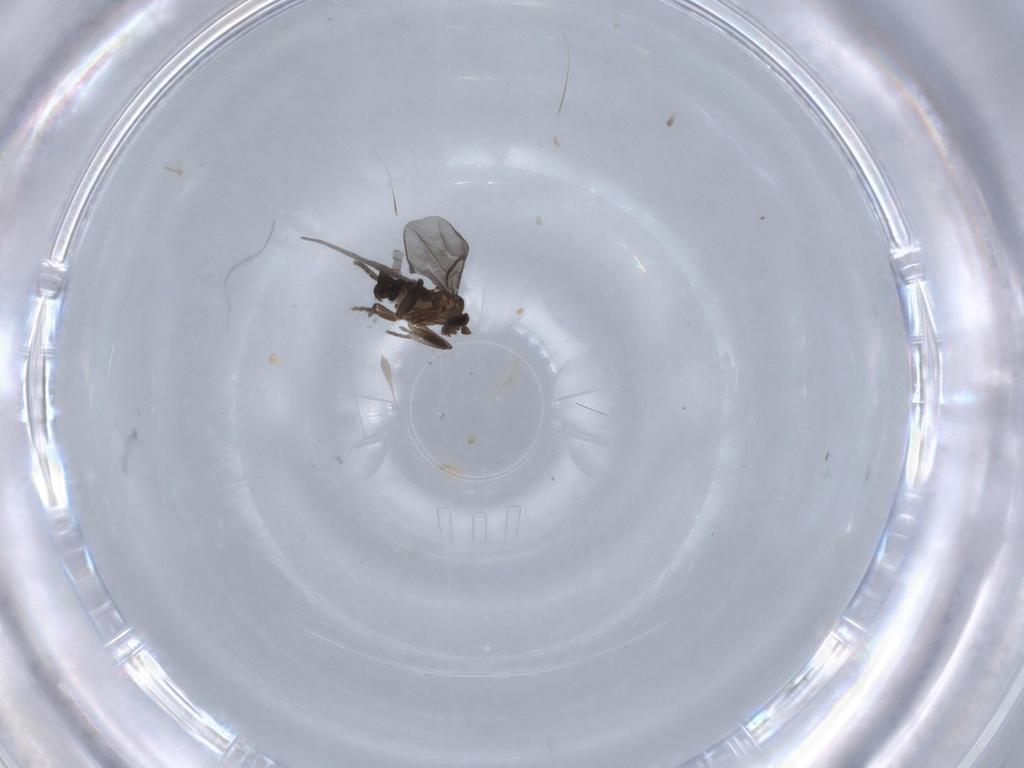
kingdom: Animalia
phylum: Arthropoda
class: Insecta
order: Diptera
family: Phoridae
